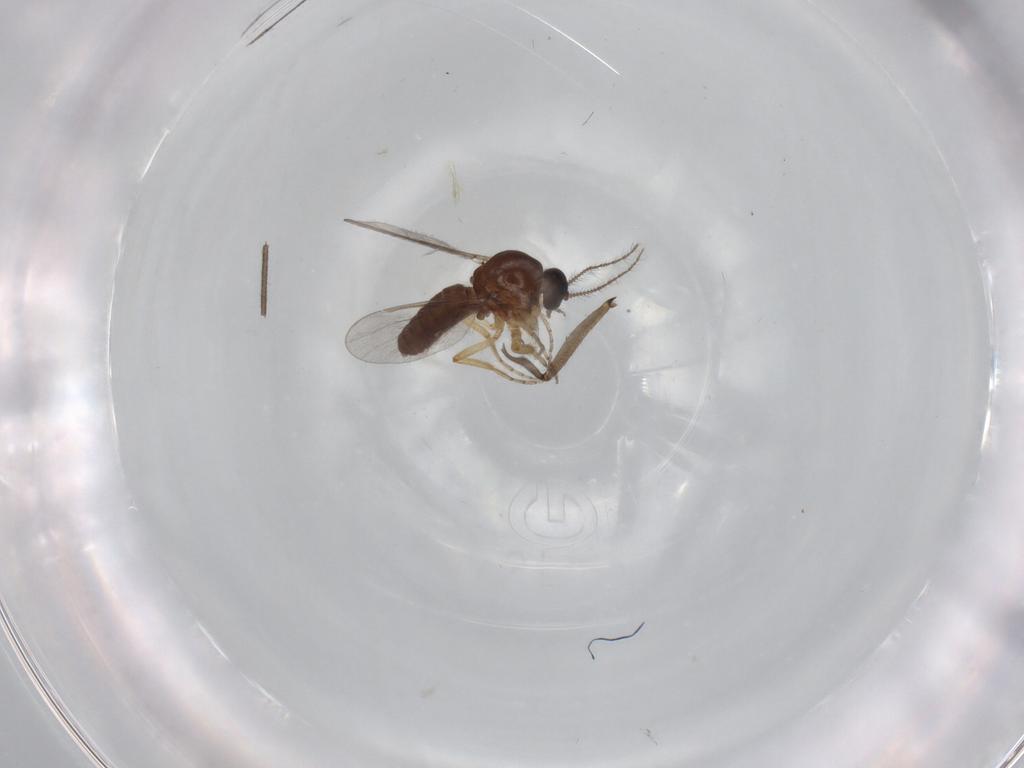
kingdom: Animalia
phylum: Arthropoda
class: Insecta
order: Diptera
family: Ceratopogonidae
